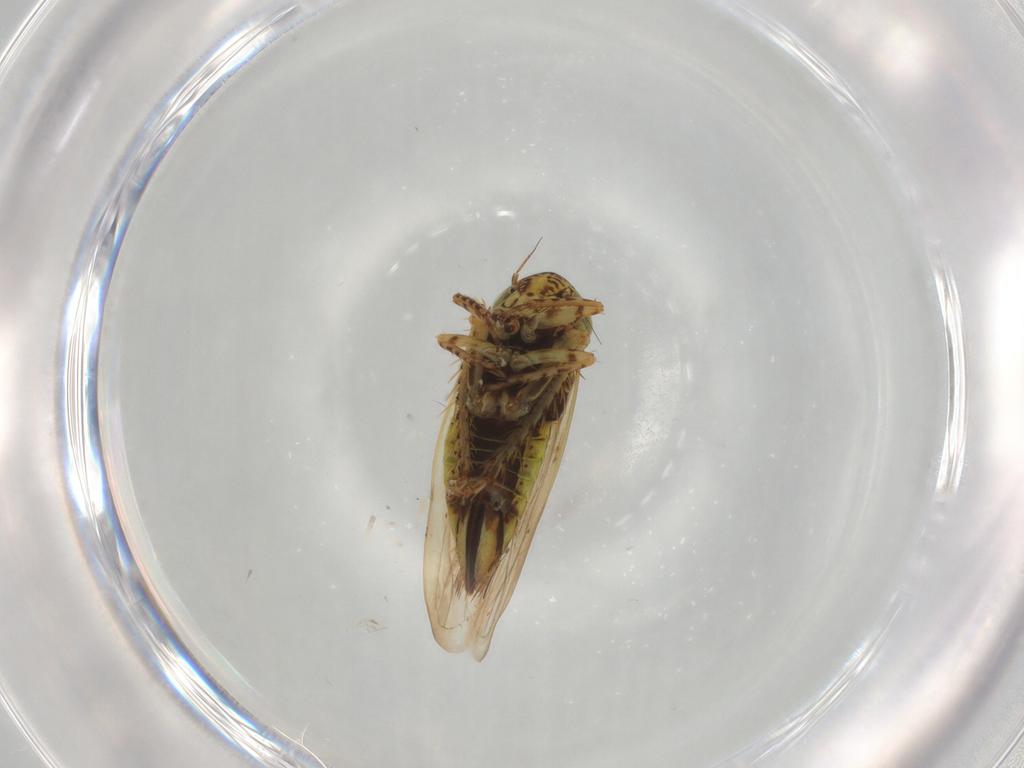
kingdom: Animalia
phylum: Arthropoda
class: Insecta
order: Hemiptera
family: Cicadellidae
